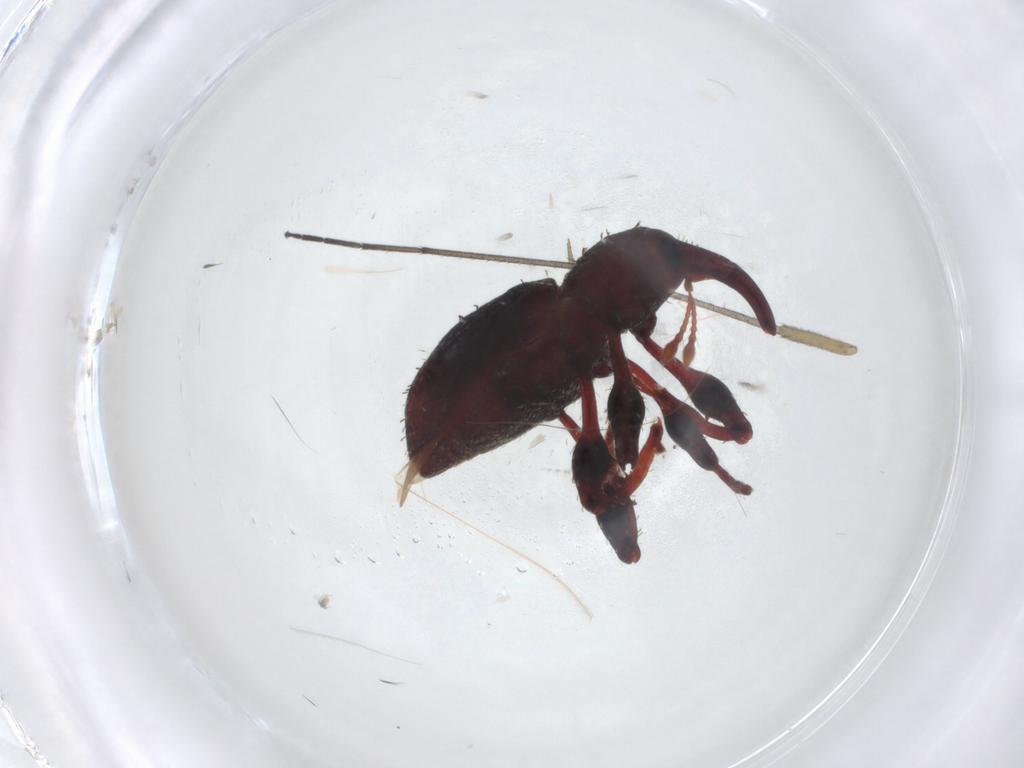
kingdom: Animalia
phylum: Arthropoda
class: Insecta
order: Coleoptera
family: Curculionidae
